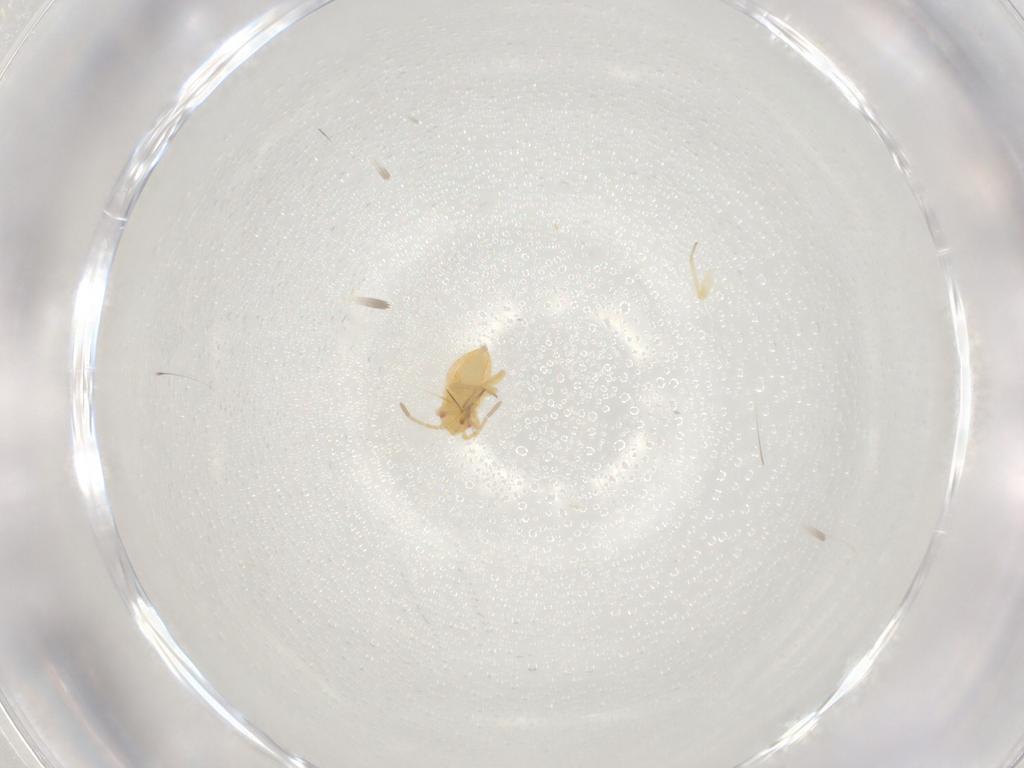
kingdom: Animalia
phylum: Arthropoda
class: Insecta
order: Hemiptera
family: Miridae
